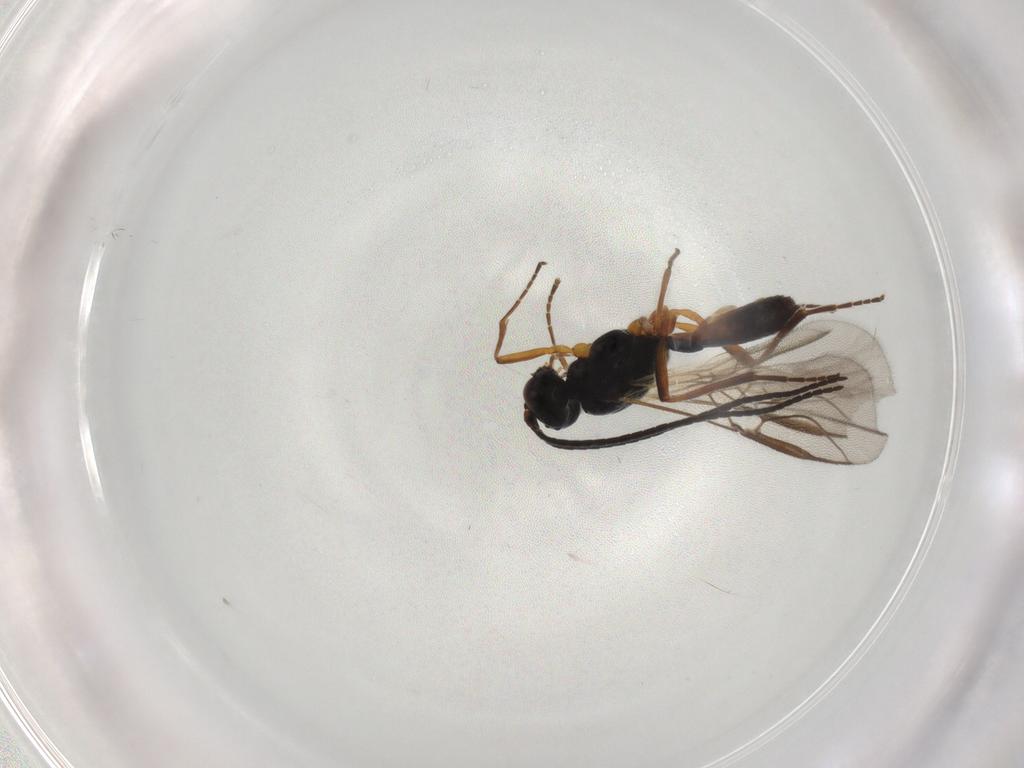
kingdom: Animalia
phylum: Arthropoda
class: Insecta
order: Hymenoptera
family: Braconidae
